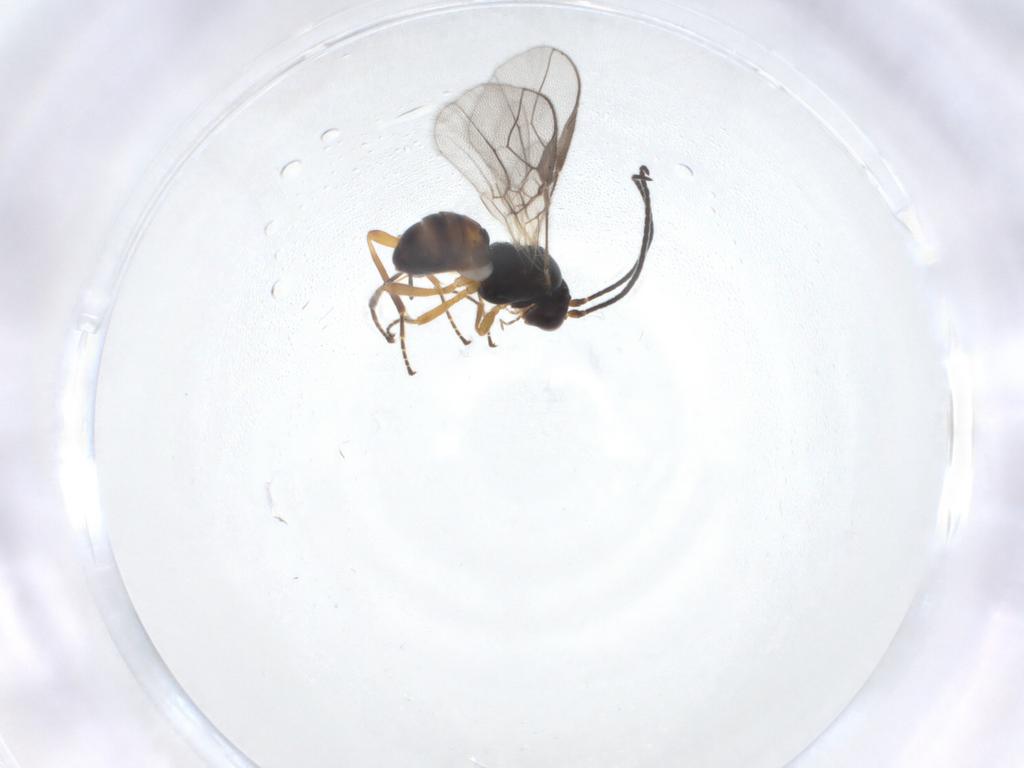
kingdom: Animalia
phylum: Arthropoda
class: Insecta
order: Hymenoptera
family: Braconidae
